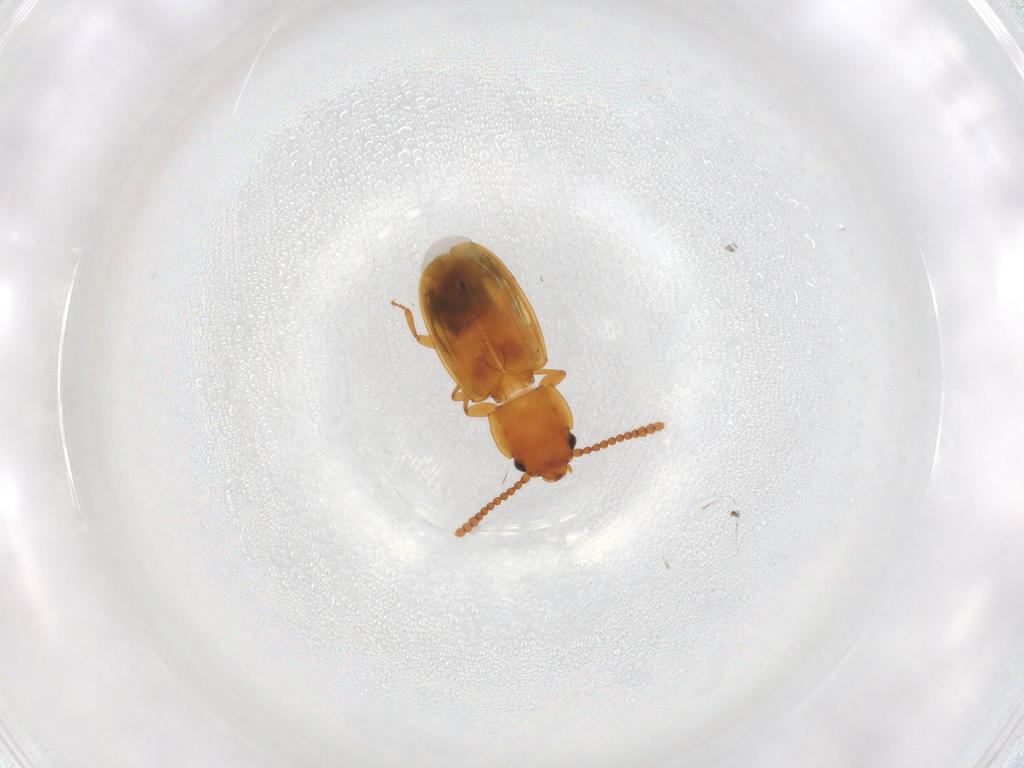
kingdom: Animalia
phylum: Arthropoda
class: Insecta
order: Coleoptera
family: Laemophloeidae
